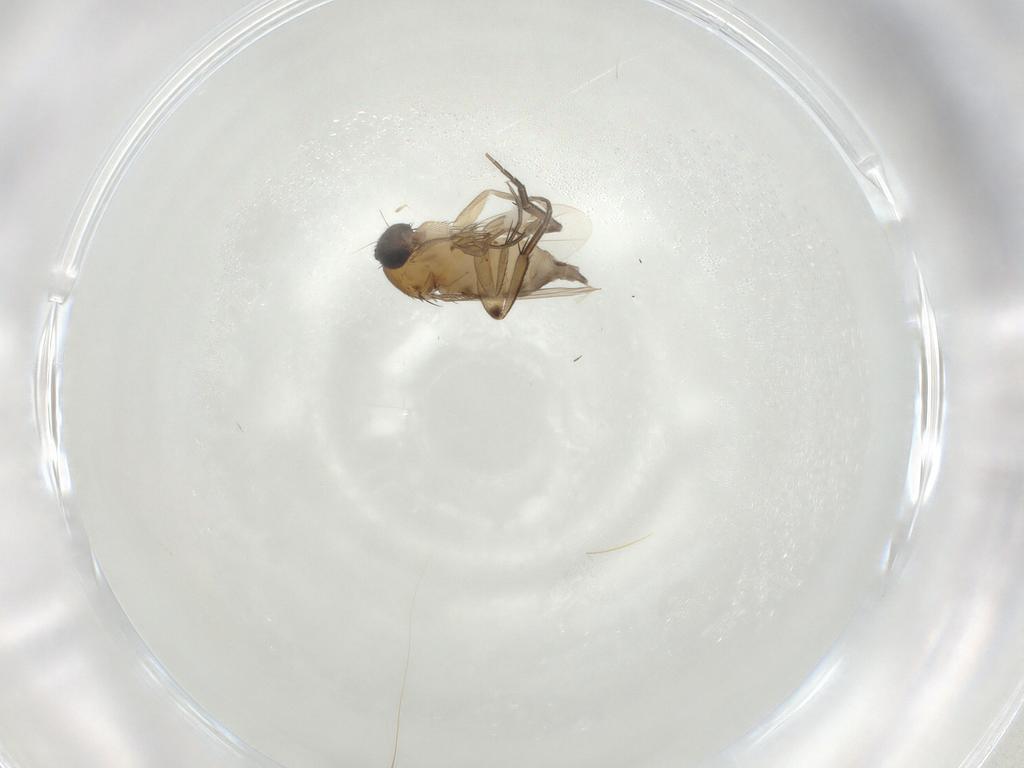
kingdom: Animalia
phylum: Arthropoda
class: Insecta
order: Diptera
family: Phoridae
